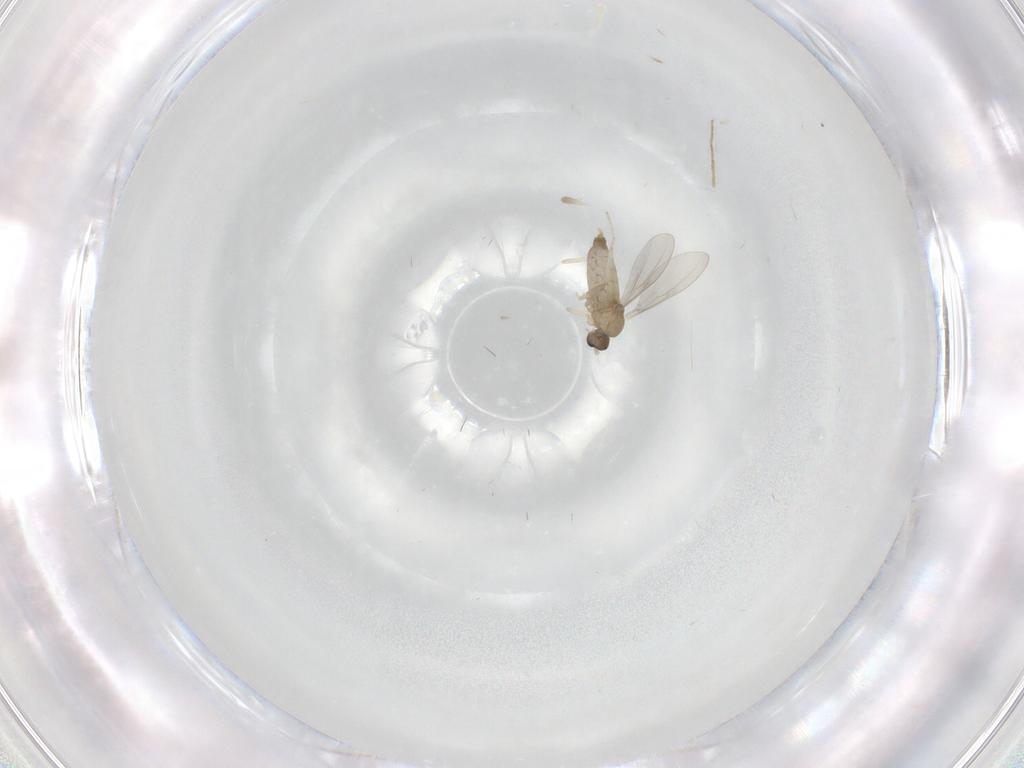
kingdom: Animalia
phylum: Arthropoda
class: Insecta
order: Diptera
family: Cecidomyiidae
